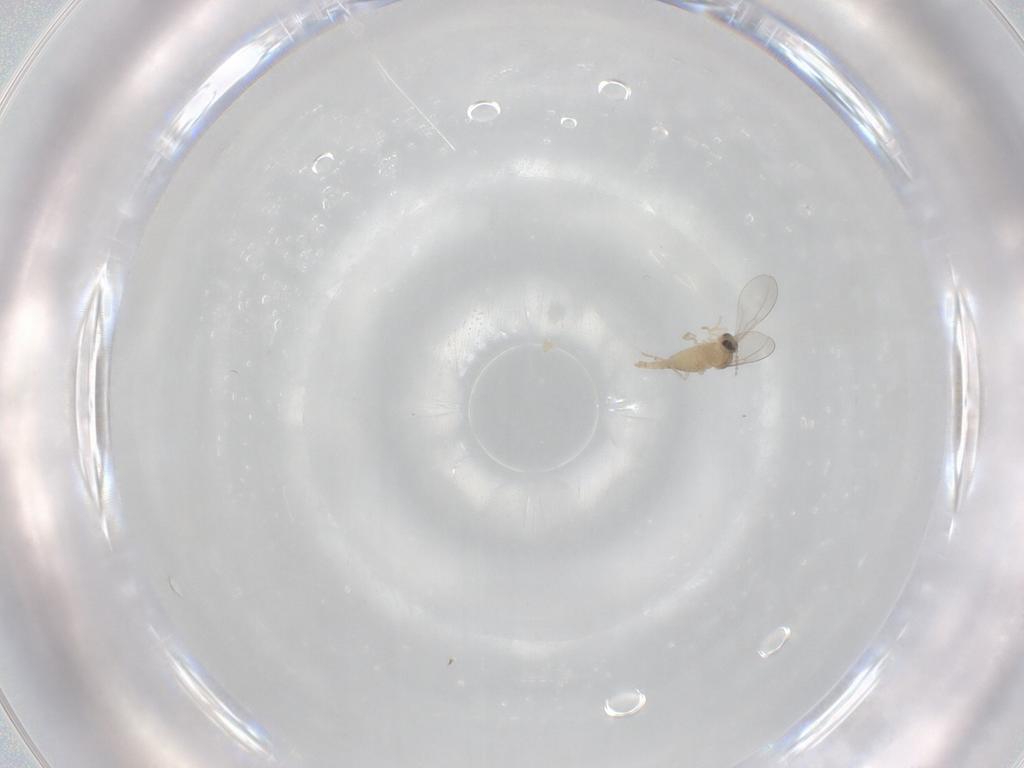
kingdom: Animalia
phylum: Arthropoda
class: Insecta
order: Diptera
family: Cecidomyiidae
